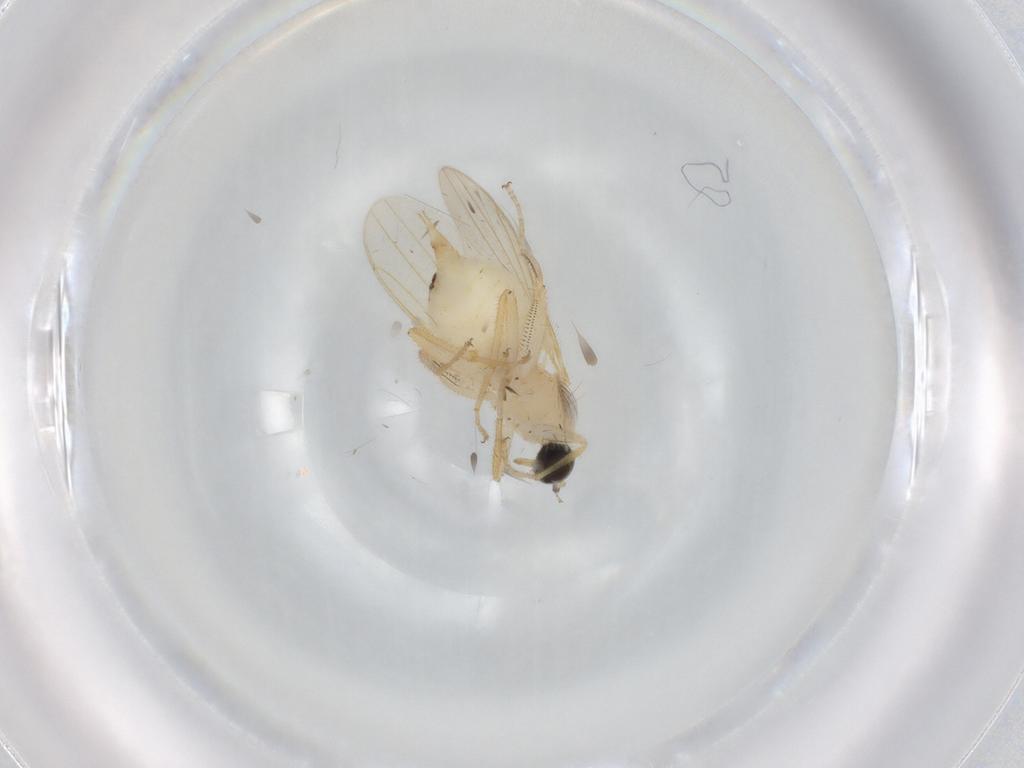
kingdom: Animalia
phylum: Arthropoda
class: Insecta
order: Diptera
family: Hybotidae
